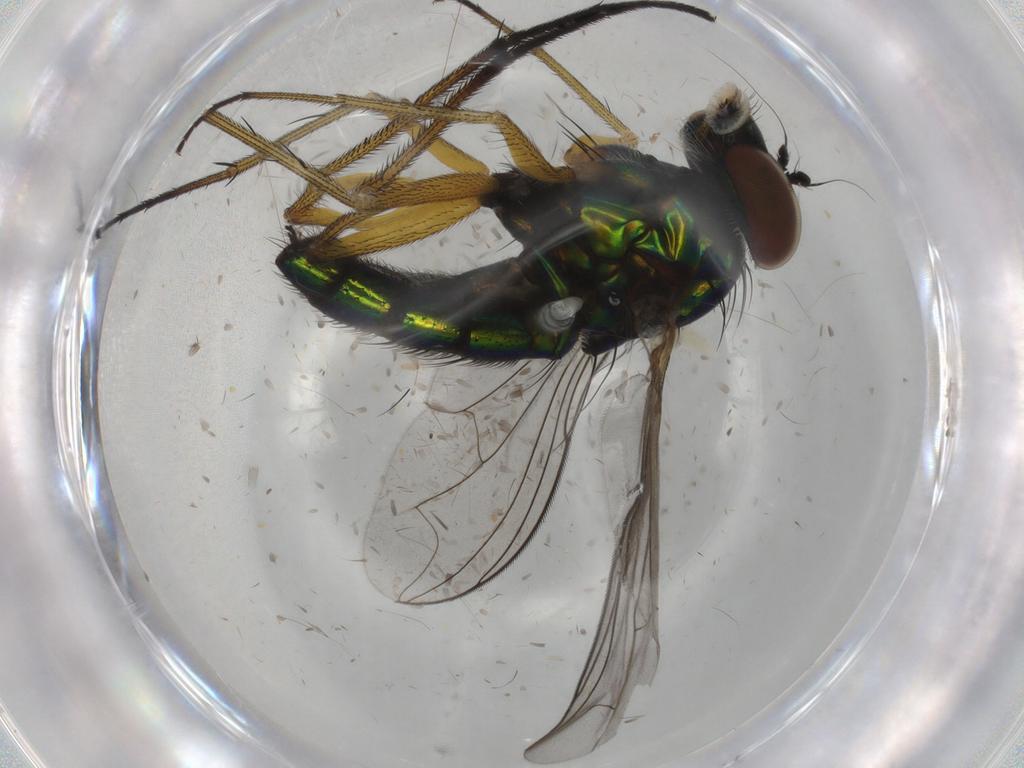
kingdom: Animalia
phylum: Arthropoda
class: Insecta
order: Diptera
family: Dolichopodidae
